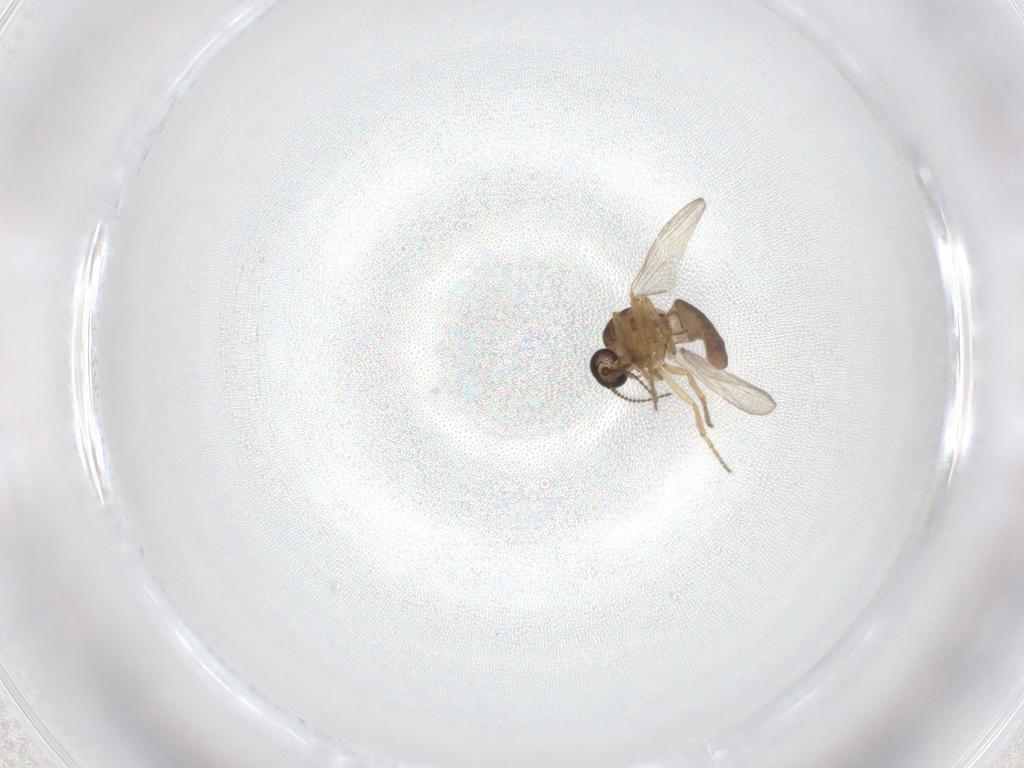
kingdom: Animalia
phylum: Arthropoda
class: Insecta
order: Diptera
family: Ceratopogonidae
